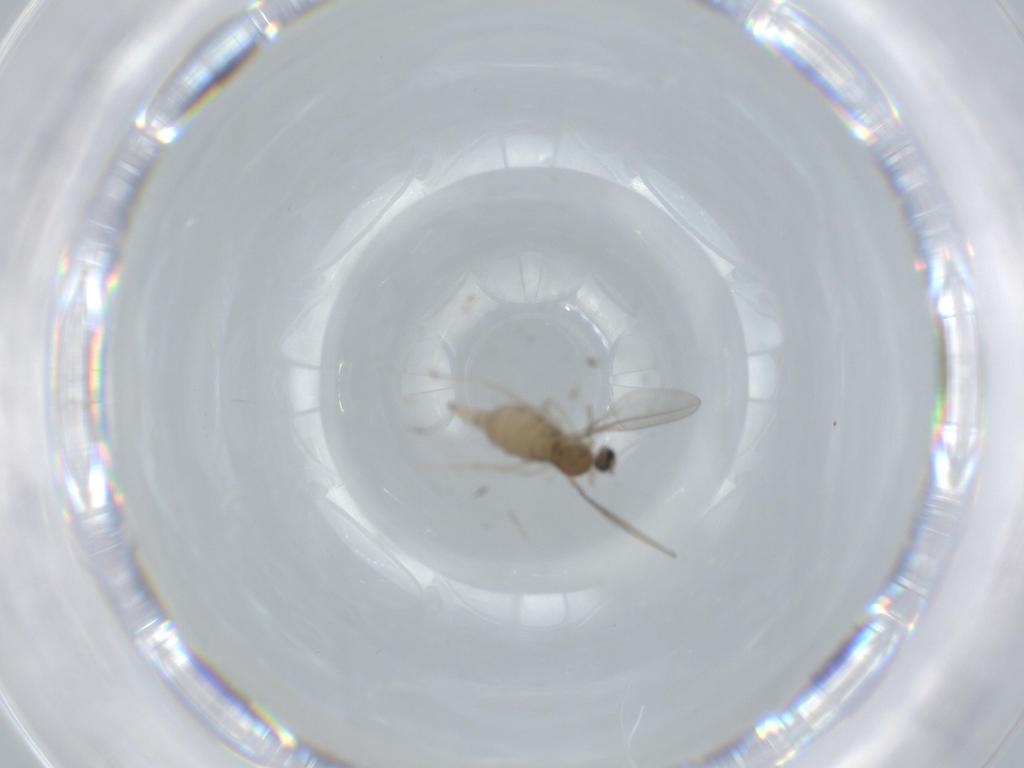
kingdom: Animalia
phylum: Arthropoda
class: Insecta
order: Diptera
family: Cecidomyiidae
